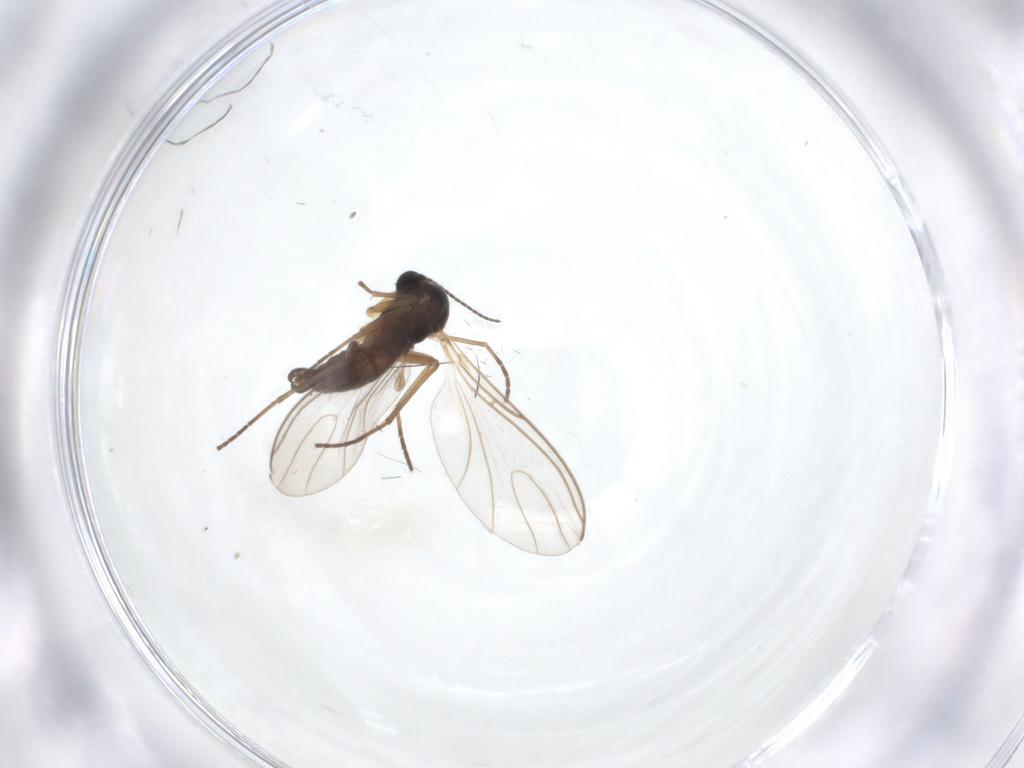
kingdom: Animalia
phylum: Arthropoda
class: Insecta
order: Diptera
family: Sciaridae
